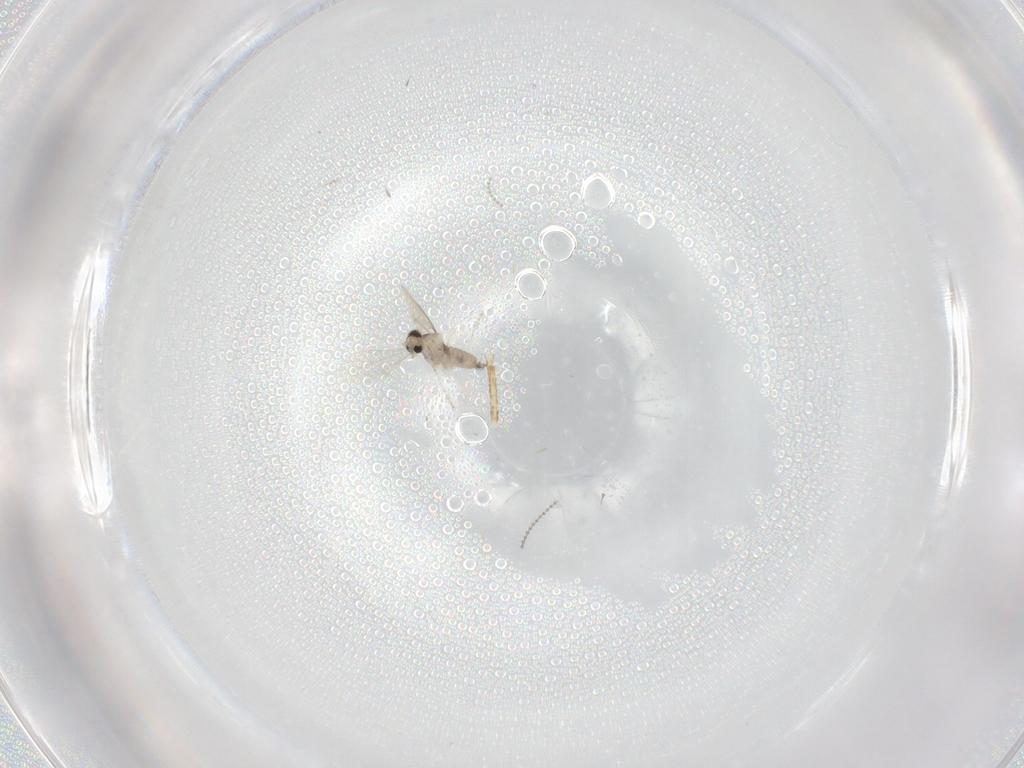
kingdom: Animalia
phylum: Arthropoda
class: Insecta
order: Diptera
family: Cecidomyiidae
